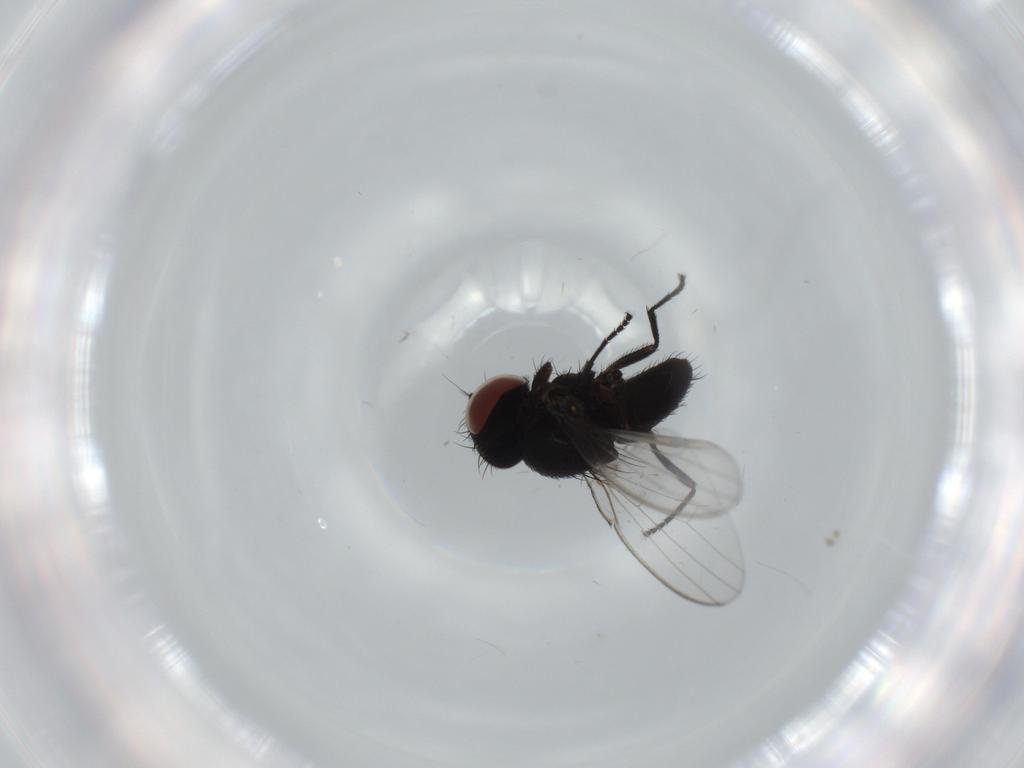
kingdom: Animalia
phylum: Arthropoda
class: Insecta
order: Diptera
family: Milichiidae
